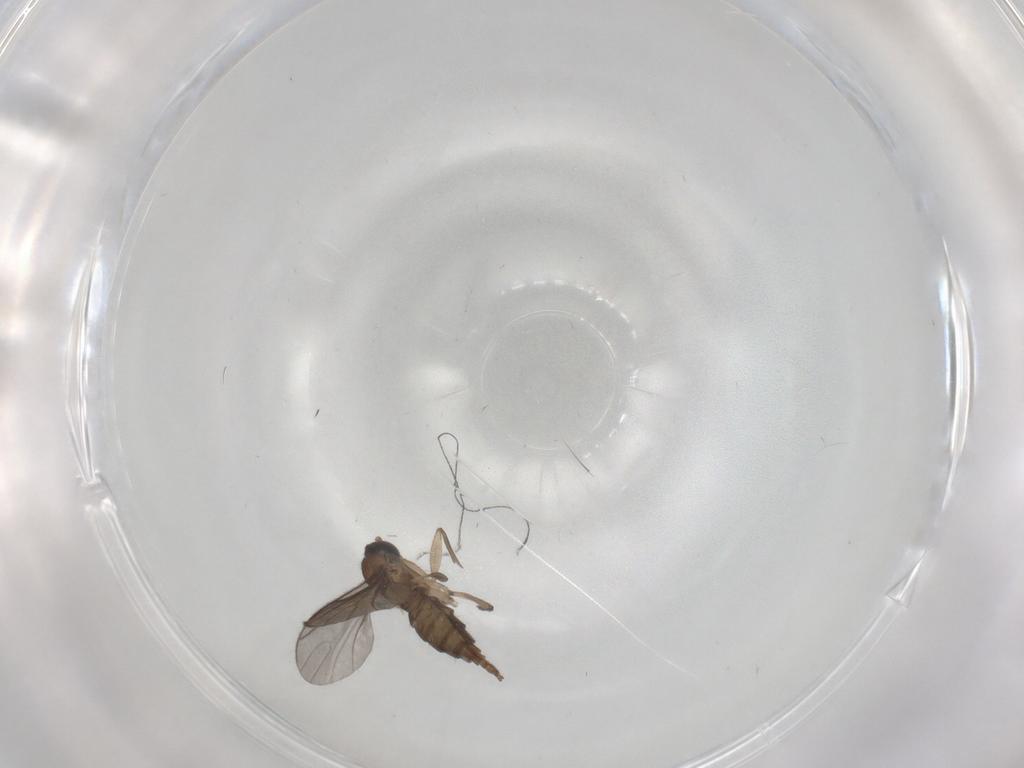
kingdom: Animalia
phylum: Arthropoda
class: Insecta
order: Diptera
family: Sciaridae
